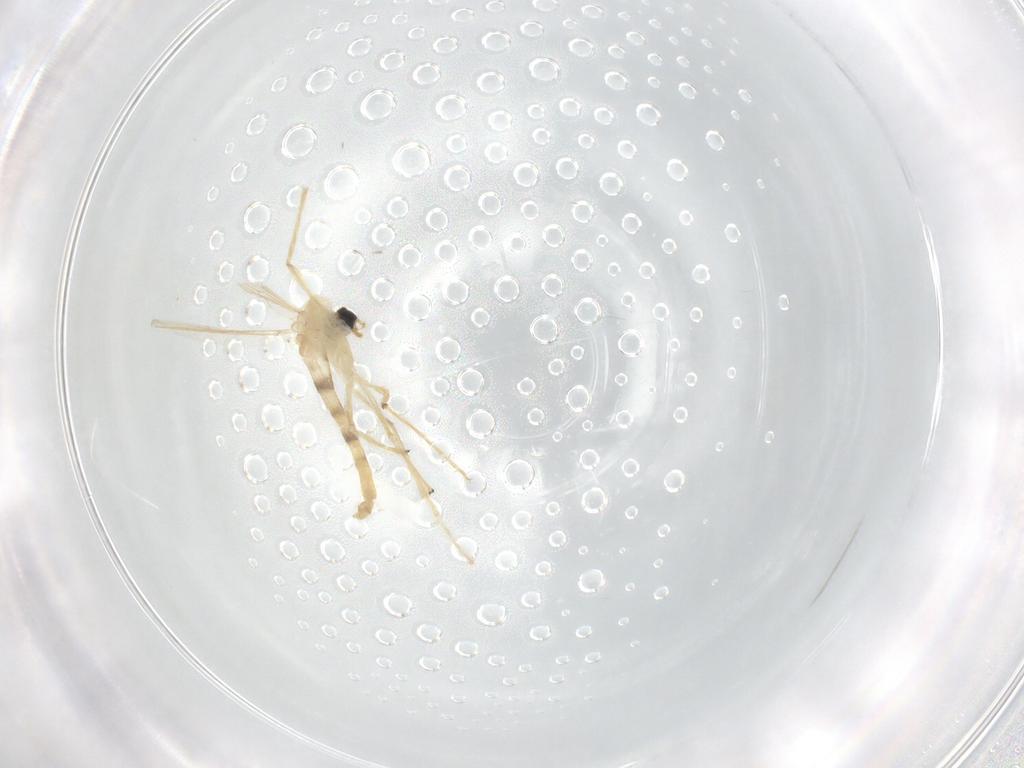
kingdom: Animalia
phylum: Arthropoda
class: Insecta
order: Diptera
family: Chironomidae
